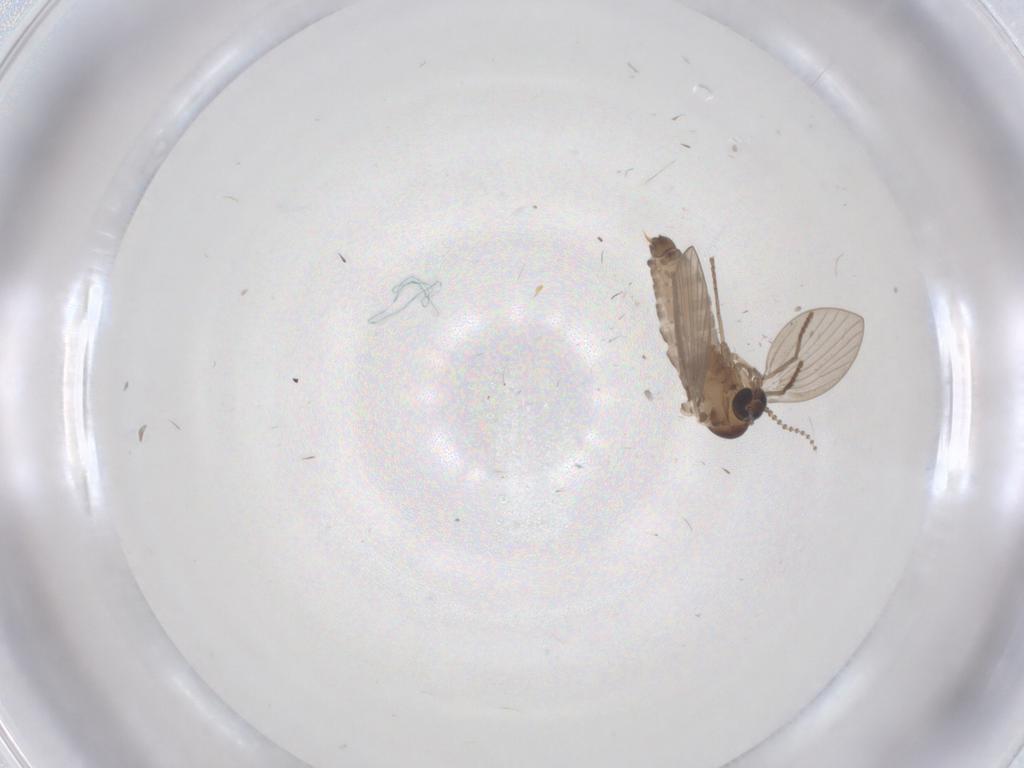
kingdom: Animalia
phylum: Arthropoda
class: Insecta
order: Diptera
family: Psychodidae
